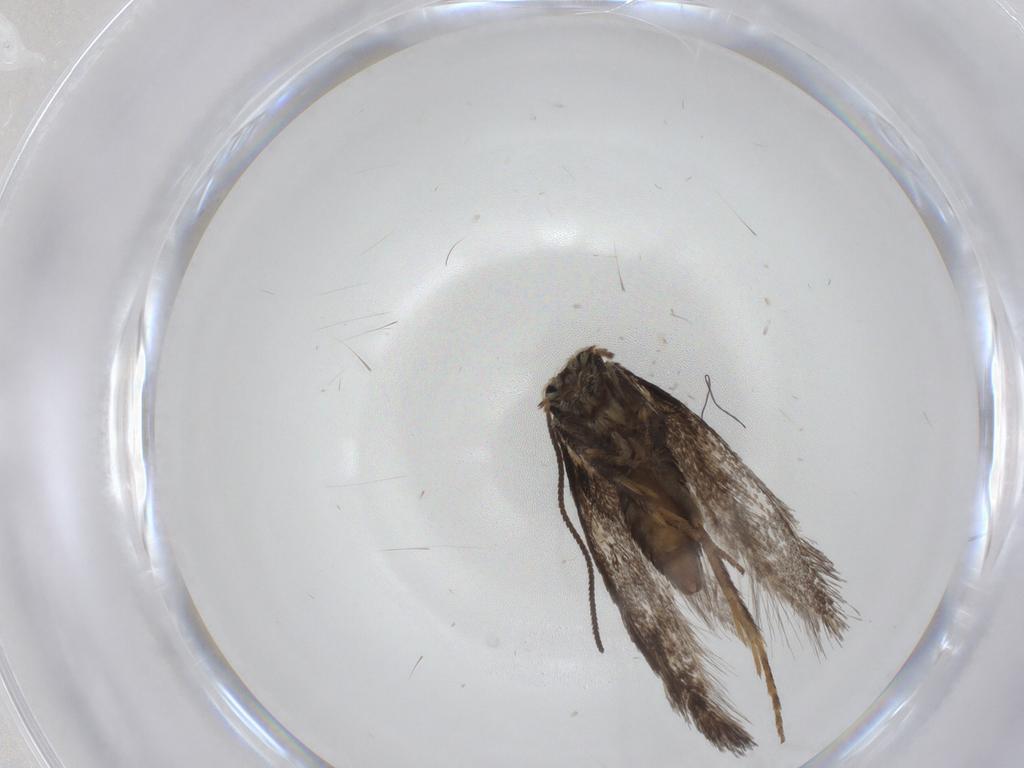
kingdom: Animalia
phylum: Arthropoda
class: Insecta
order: Lepidoptera
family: Nepticulidae
